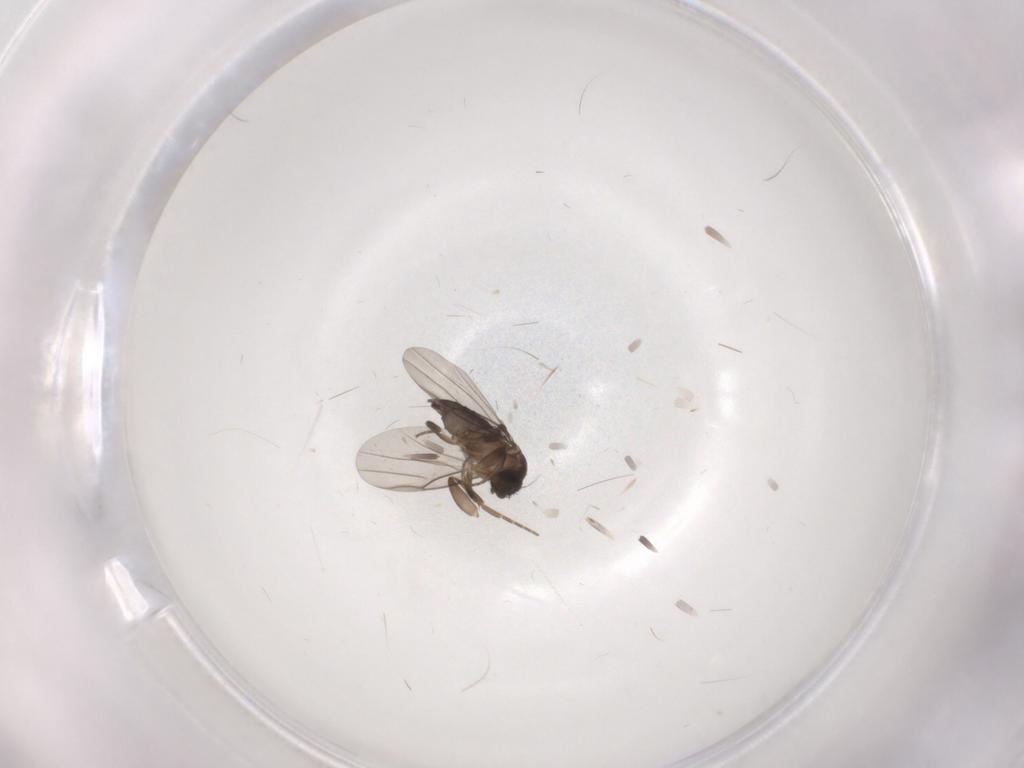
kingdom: Animalia
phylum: Arthropoda
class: Insecta
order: Diptera
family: Phoridae
